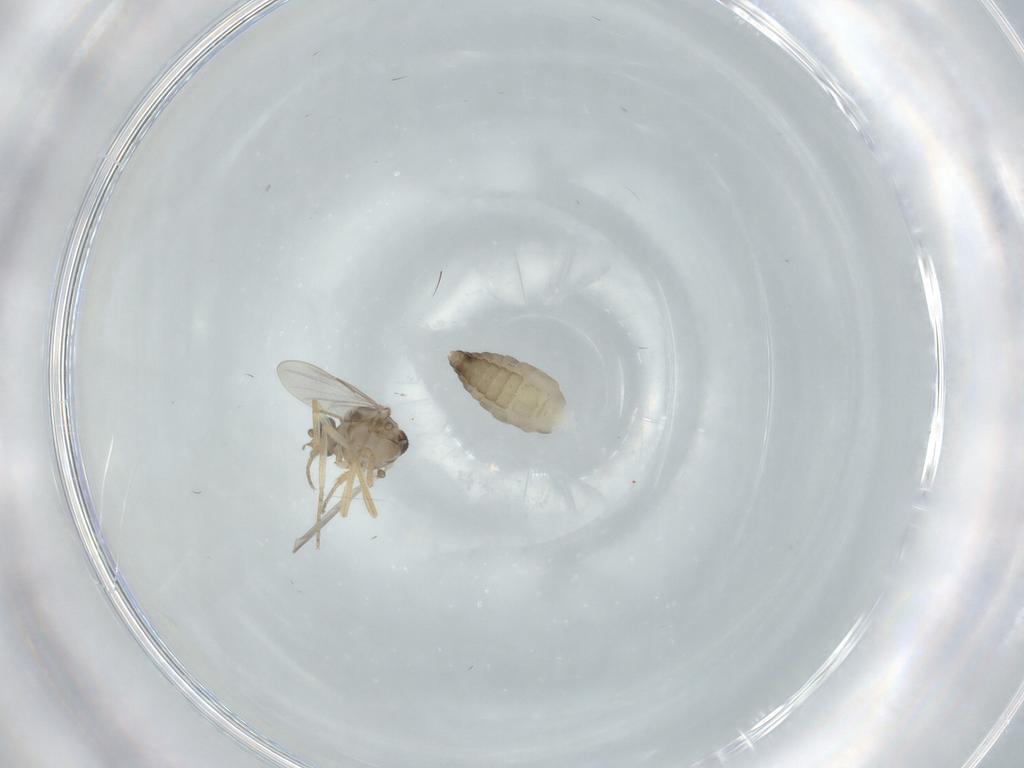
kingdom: Animalia
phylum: Arthropoda
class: Insecta
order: Diptera
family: Ceratopogonidae
